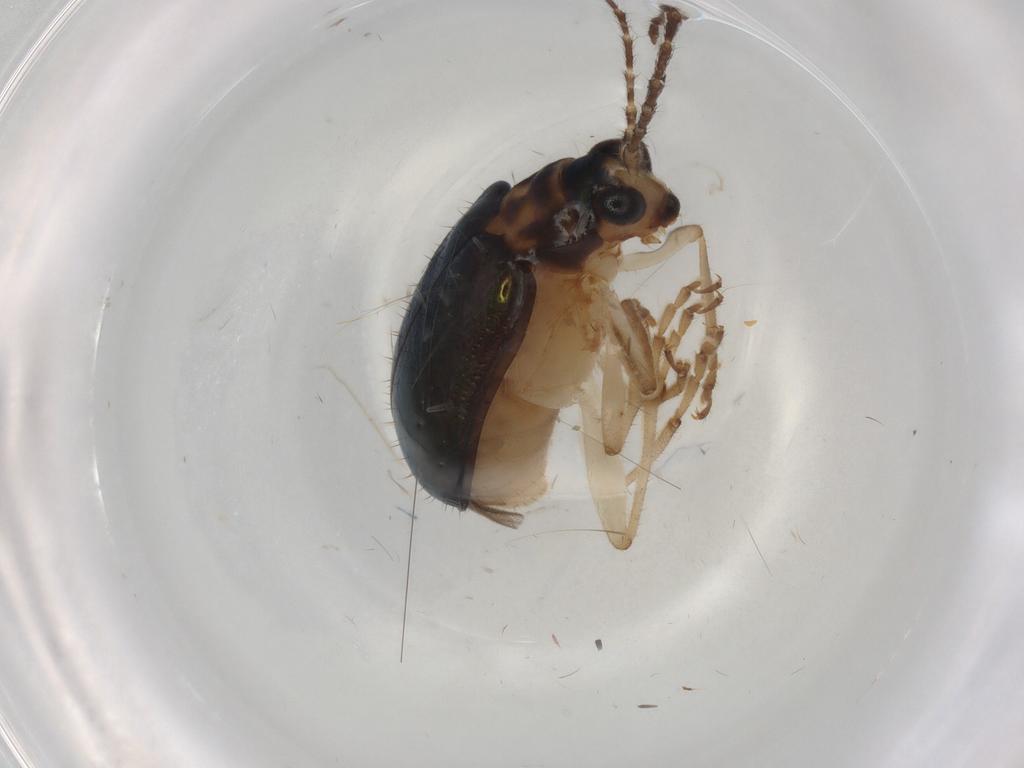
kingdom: Animalia
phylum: Arthropoda
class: Insecta
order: Coleoptera
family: Chrysomelidae
